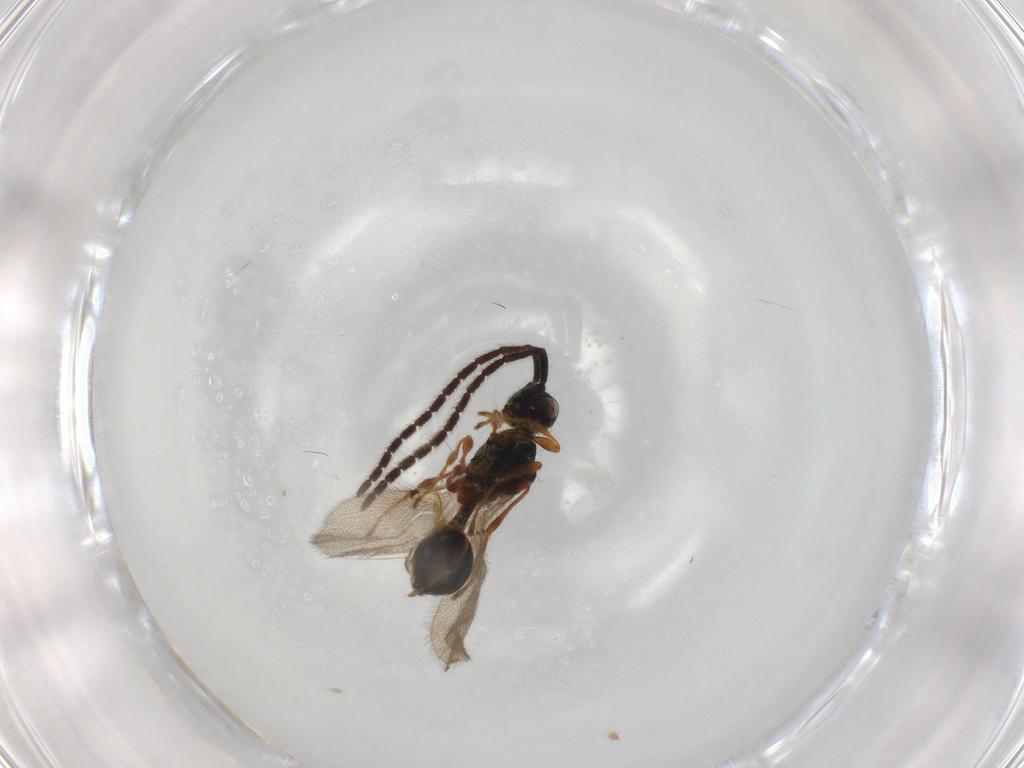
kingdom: Animalia
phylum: Arthropoda
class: Insecta
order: Hymenoptera
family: Diapriidae
